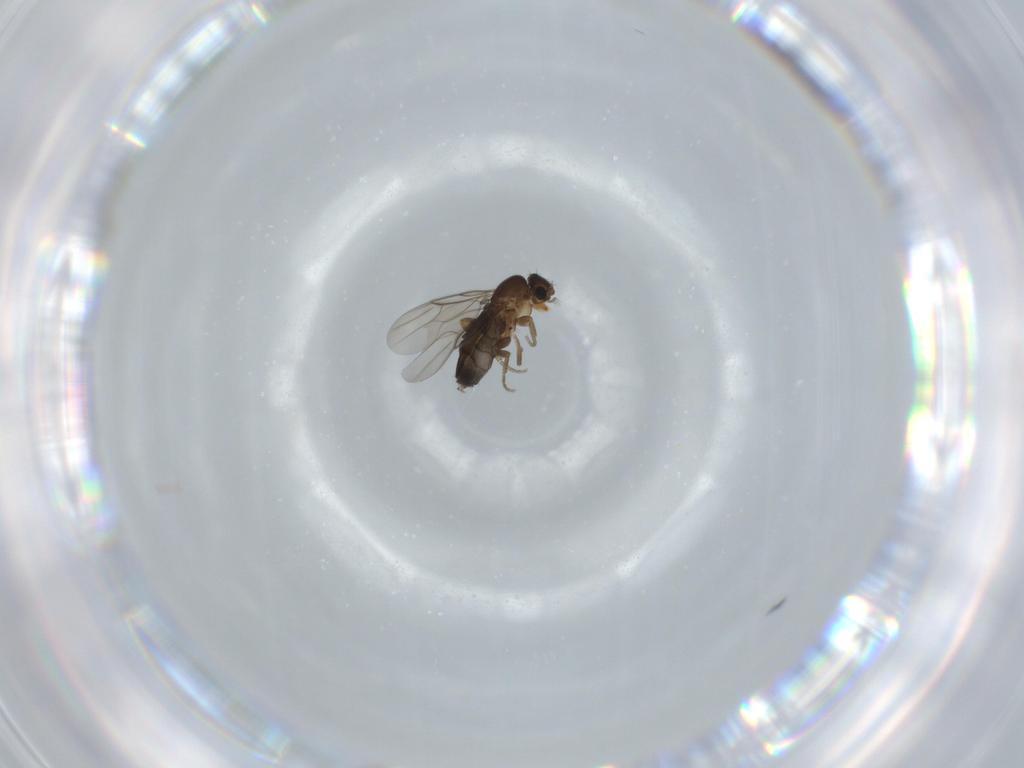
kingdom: Animalia
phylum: Arthropoda
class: Insecta
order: Diptera
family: Phoridae
